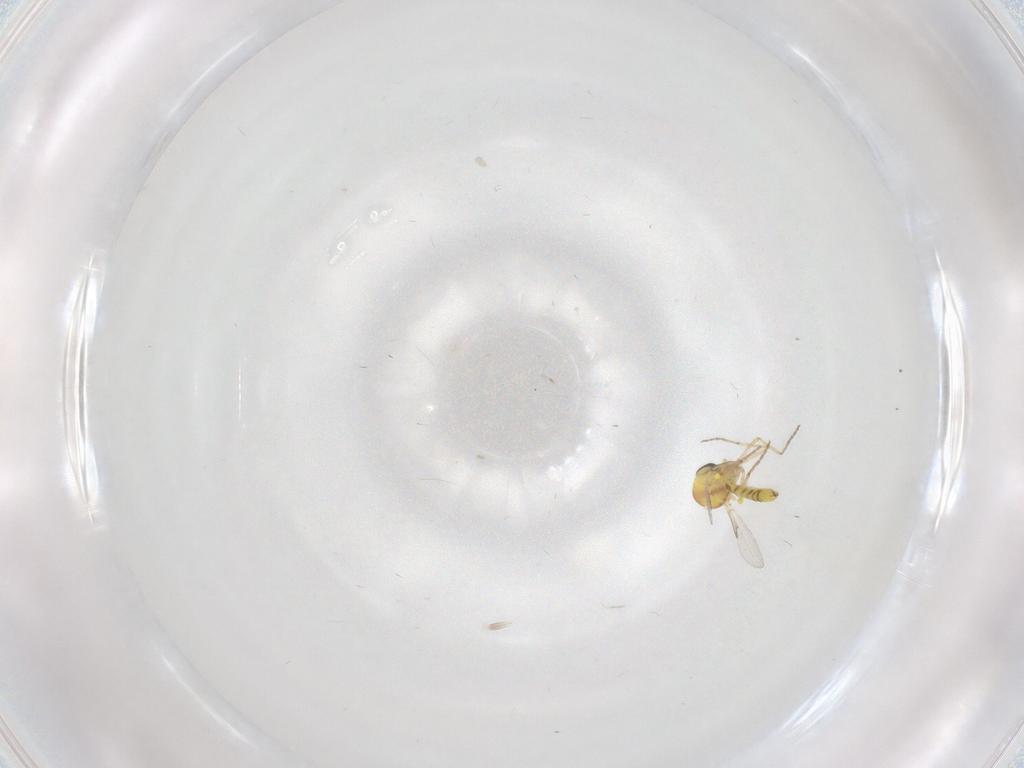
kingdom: Animalia
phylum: Arthropoda
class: Insecta
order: Diptera
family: Ceratopogonidae
